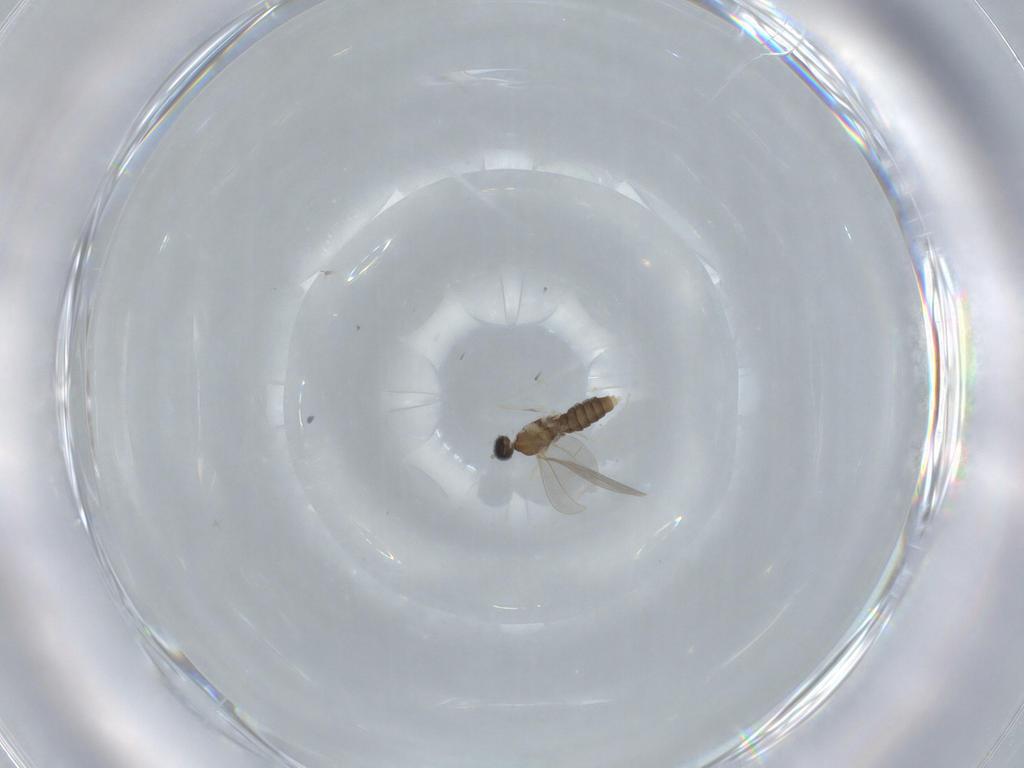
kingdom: Animalia
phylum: Arthropoda
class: Insecta
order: Diptera
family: Cecidomyiidae
